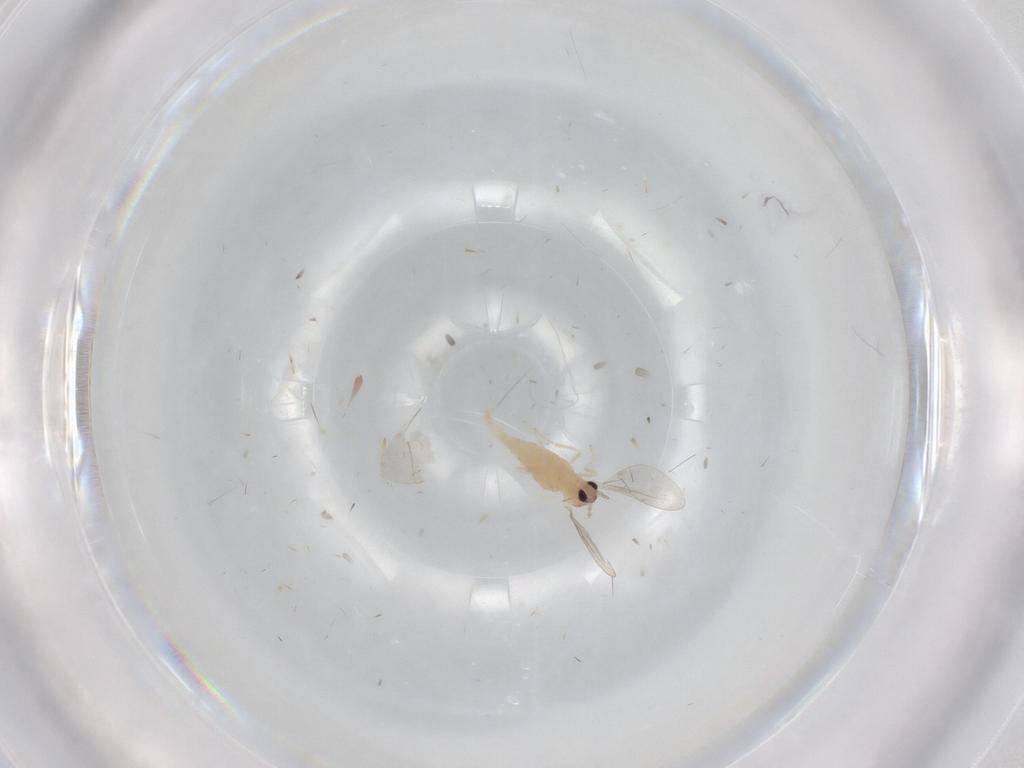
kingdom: Animalia
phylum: Arthropoda
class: Insecta
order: Diptera
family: Cecidomyiidae
